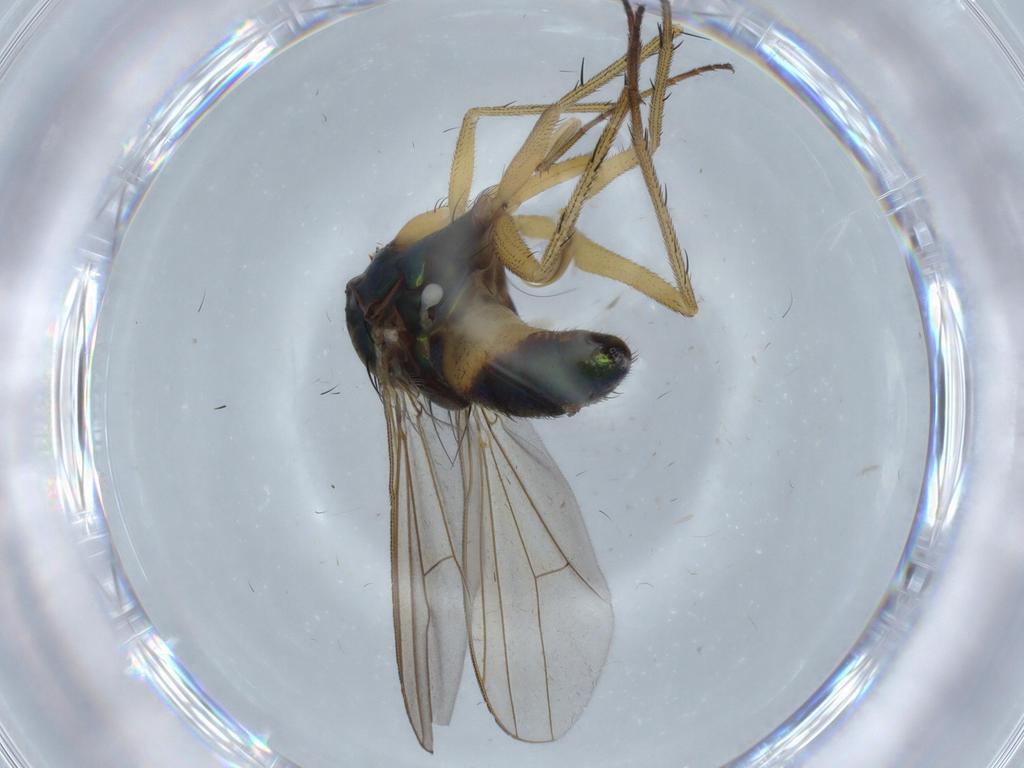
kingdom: Animalia
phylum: Arthropoda
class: Insecta
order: Diptera
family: Cecidomyiidae
